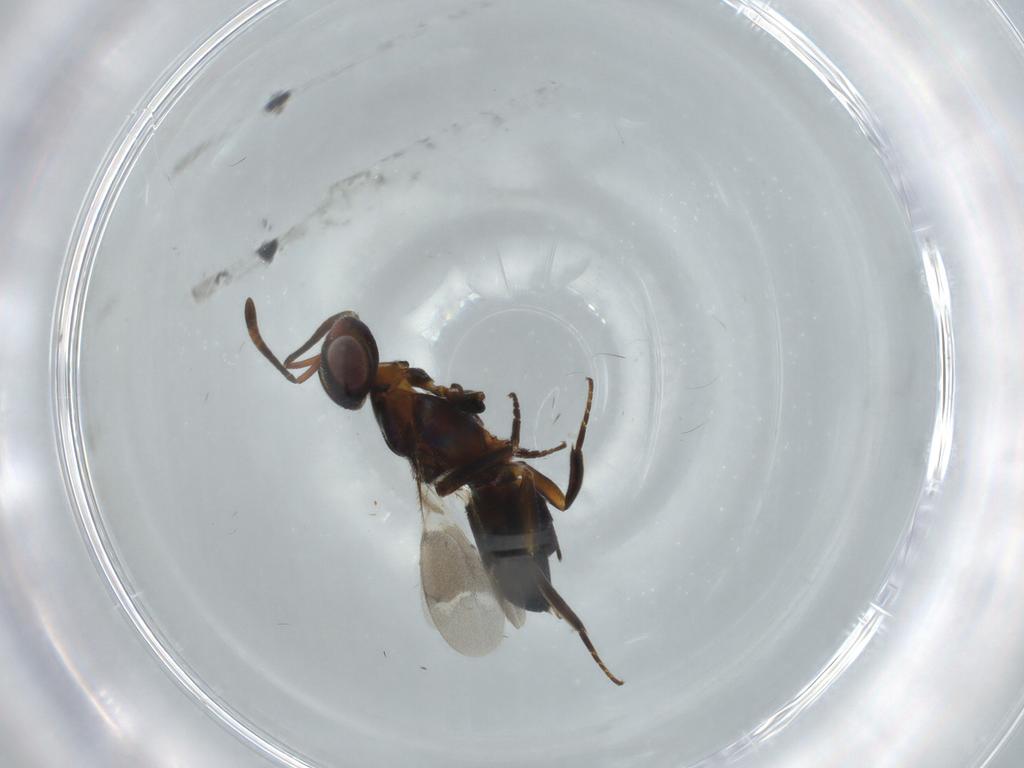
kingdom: Animalia
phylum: Arthropoda
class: Insecta
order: Hymenoptera
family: Eupelmidae
